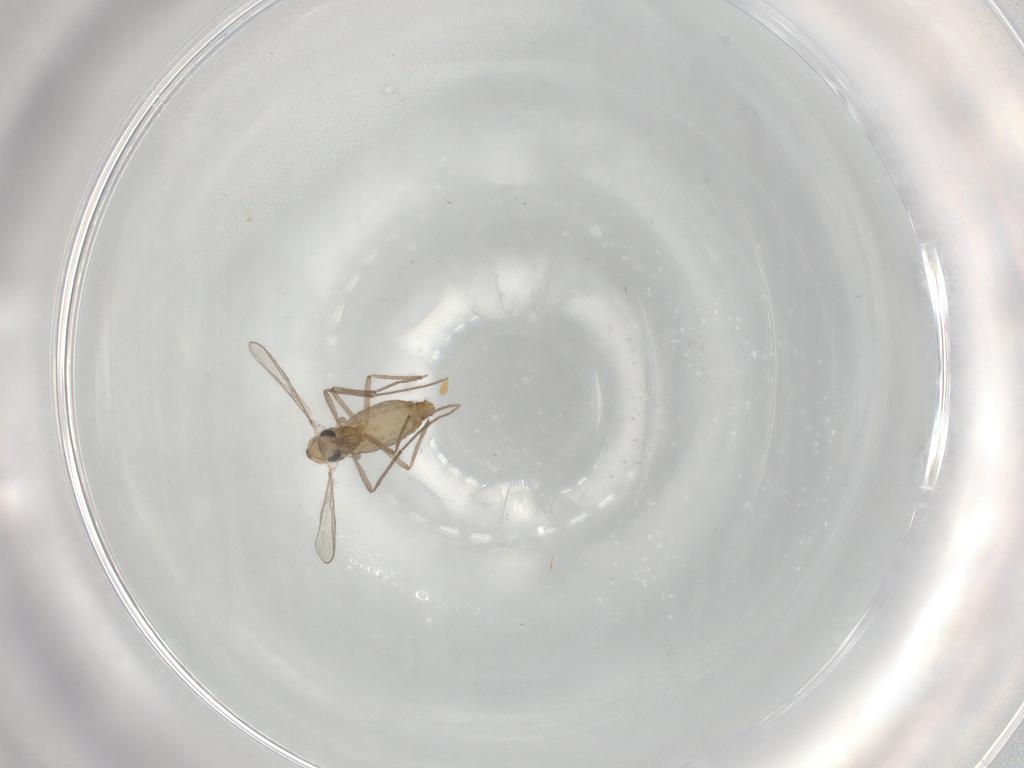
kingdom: Animalia
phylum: Arthropoda
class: Insecta
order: Diptera
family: Chironomidae
